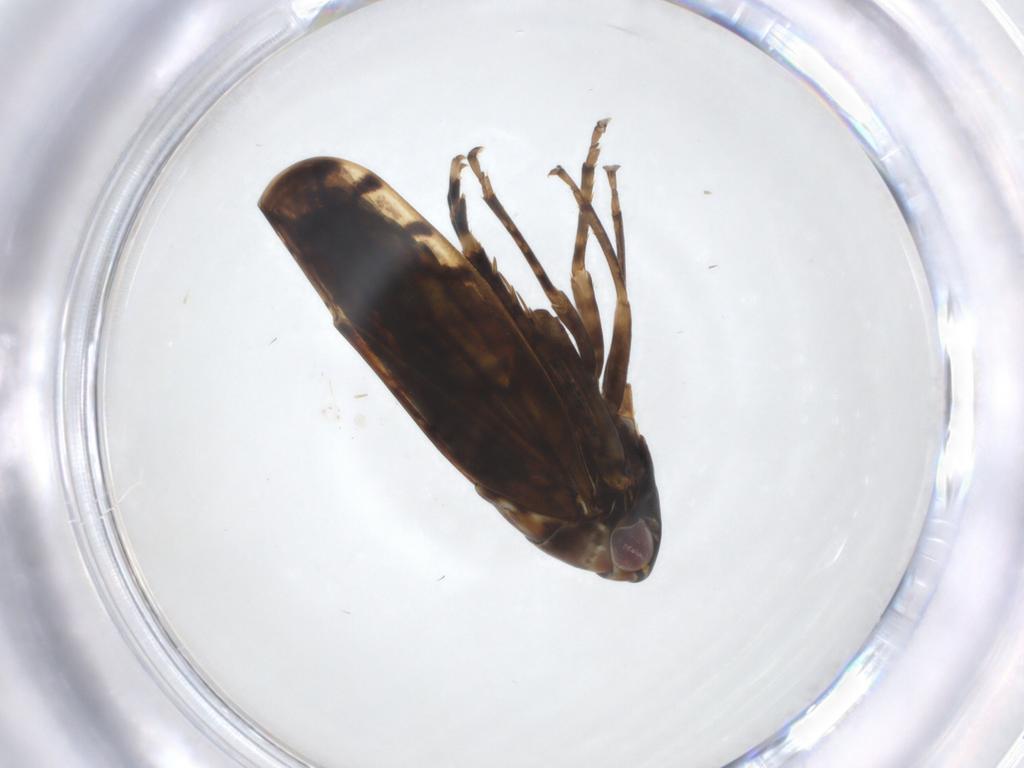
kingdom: Animalia
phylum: Arthropoda
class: Insecta
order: Hemiptera
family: Cicadellidae
